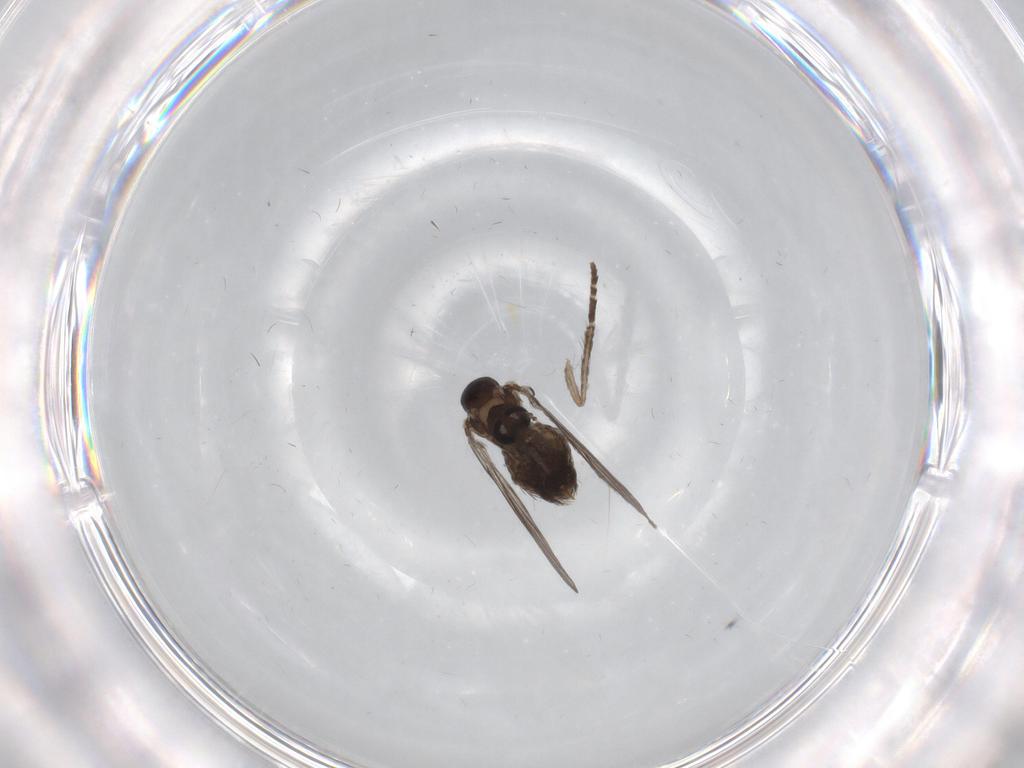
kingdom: Animalia
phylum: Arthropoda
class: Insecta
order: Diptera
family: Psychodidae
